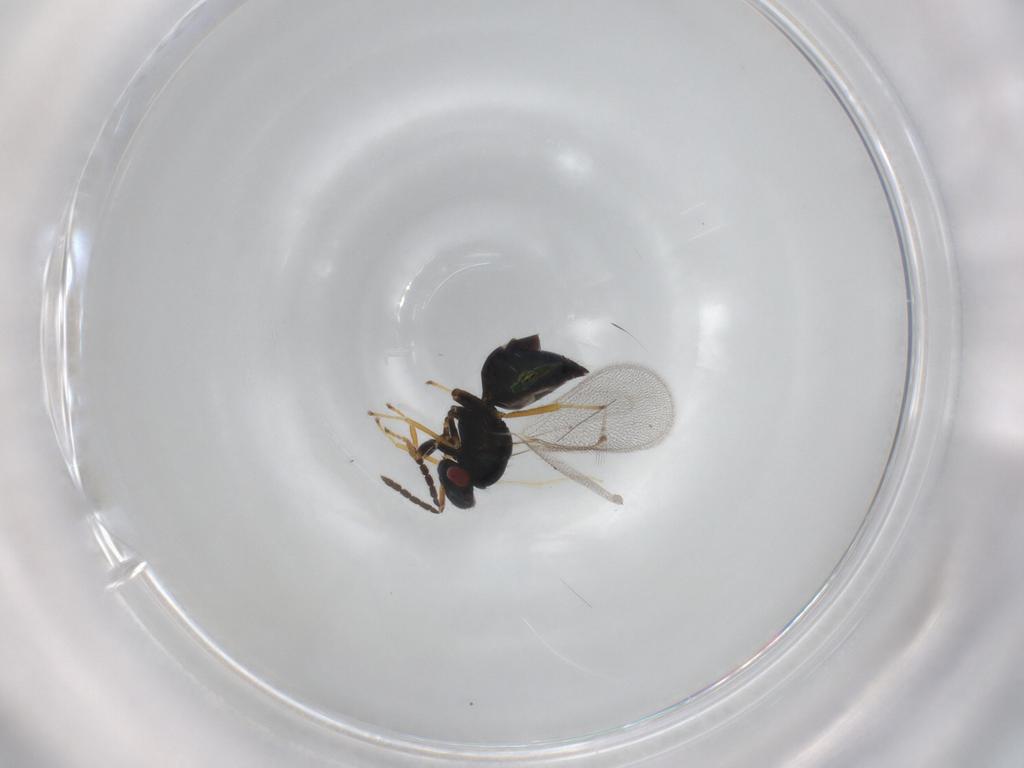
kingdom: Animalia
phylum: Arthropoda
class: Insecta
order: Hymenoptera
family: Eulophidae
